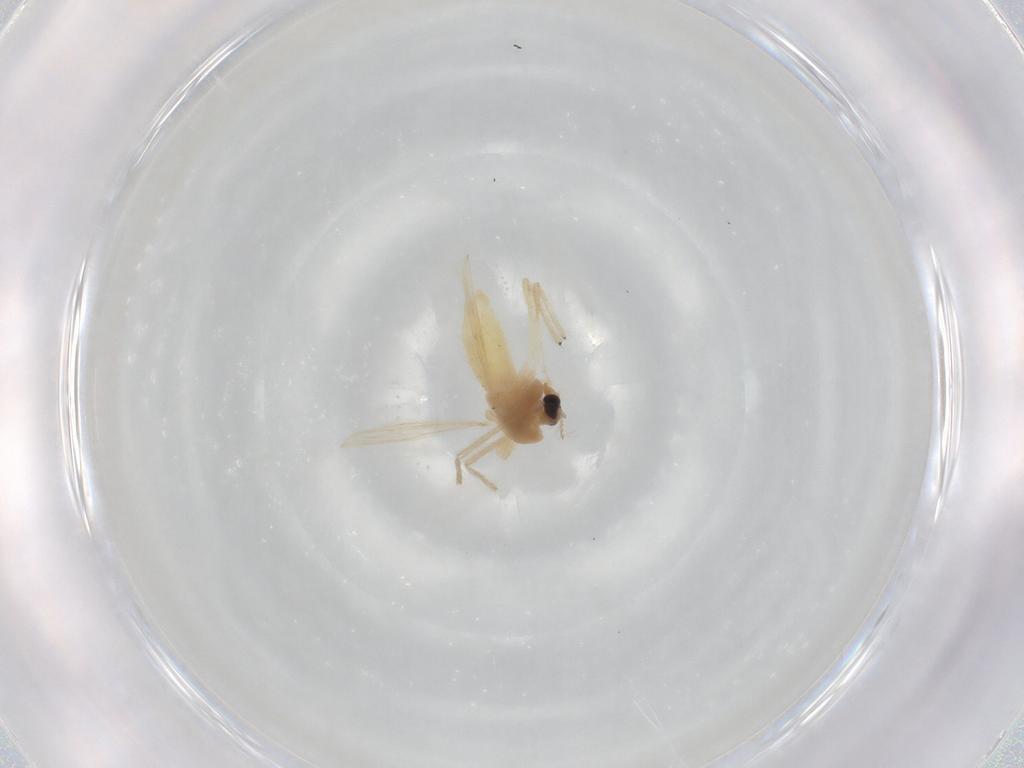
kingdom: Animalia
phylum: Arthropoda
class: Insecta
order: Diptera
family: Chironomidae
